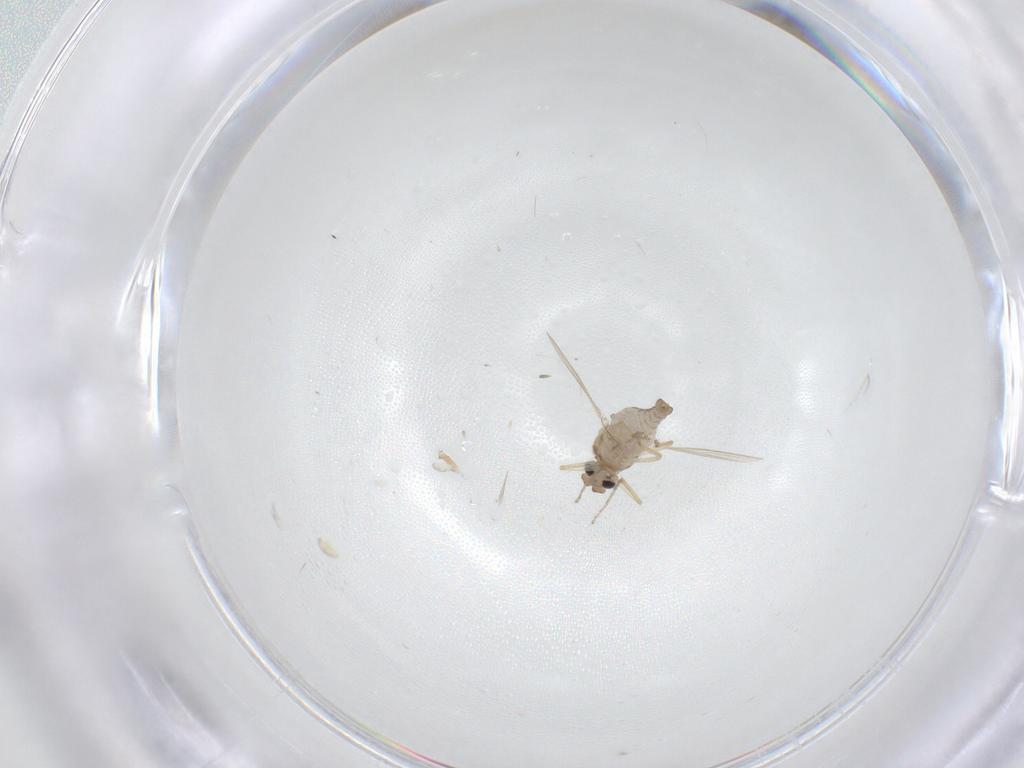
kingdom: Animalia
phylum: Arthropoda
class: Insecta
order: Diptera
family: Ceratopogonidae
